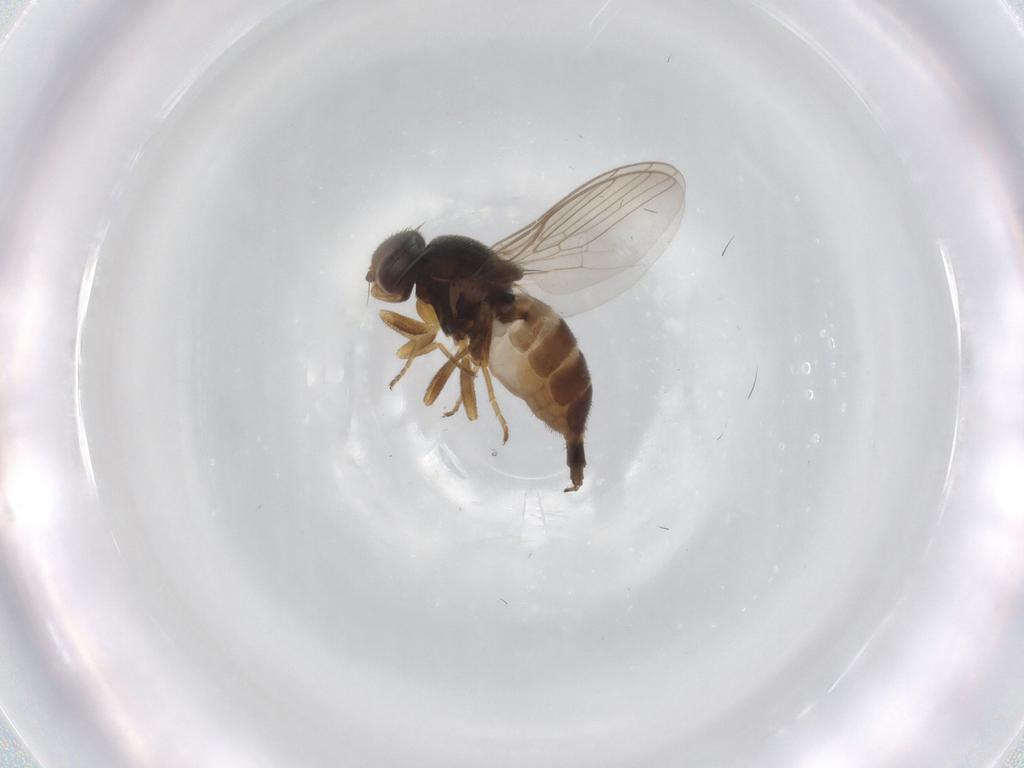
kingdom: Animalia
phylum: Arthropoda
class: Insecta
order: Diptera
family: Chloropidae
